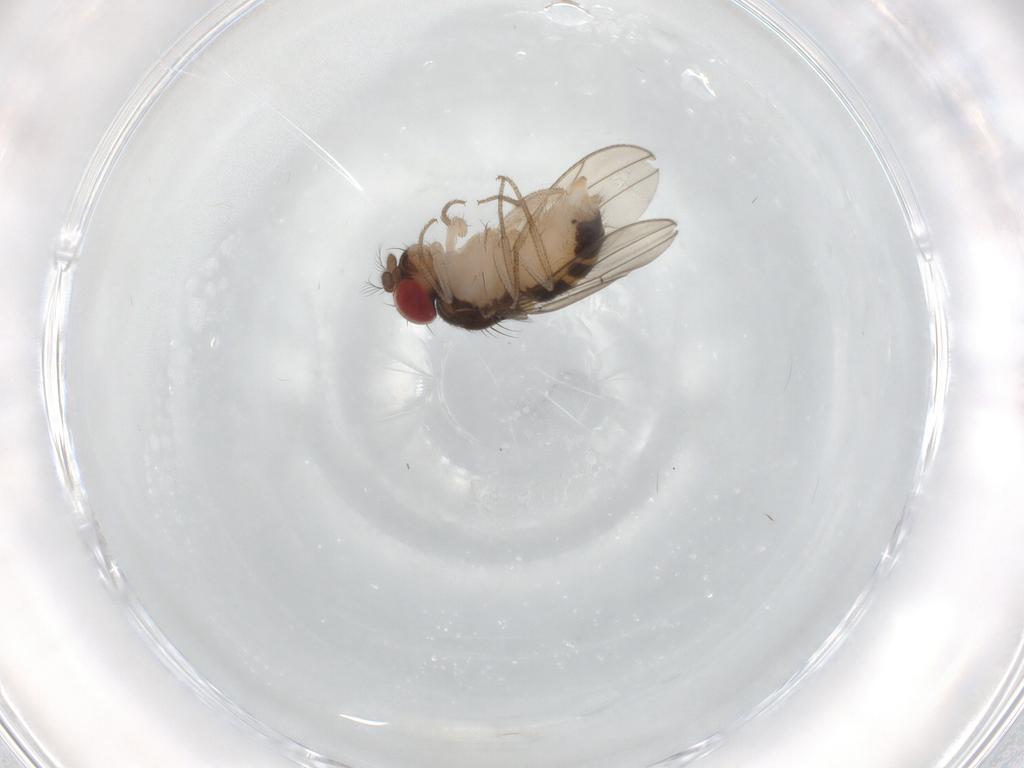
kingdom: Animalia
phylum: Arthropoda
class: Insecta
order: Diptera
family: Drosophilidae
